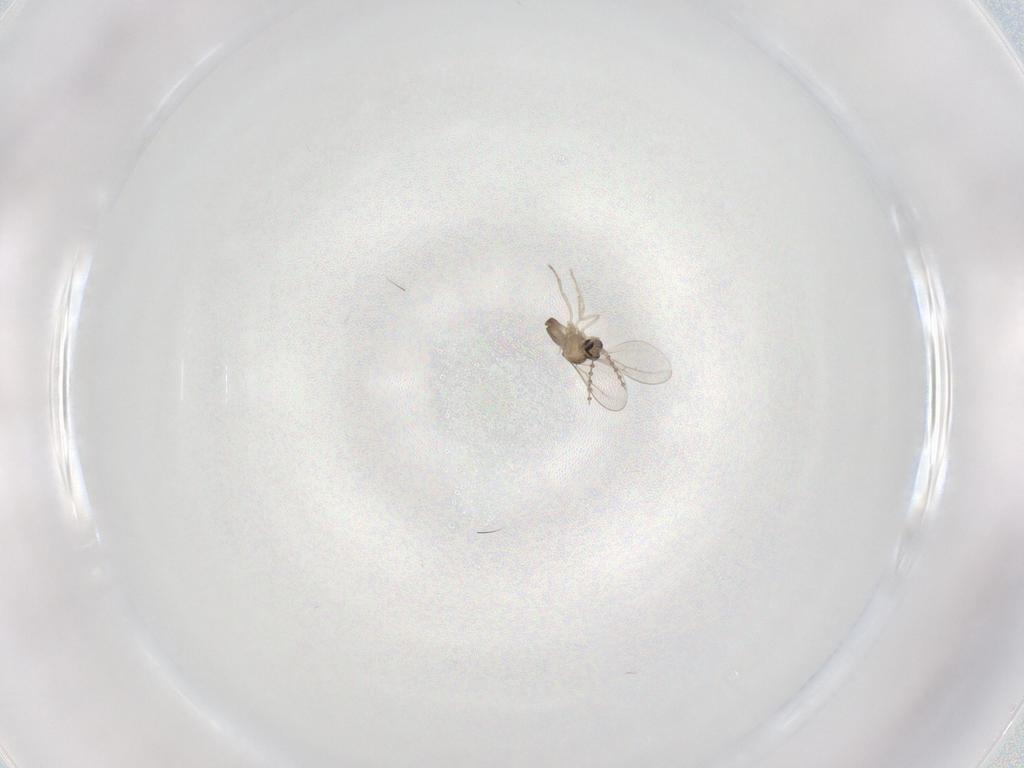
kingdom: Animalia
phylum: Arthropoda
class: Insecta
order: Diptera
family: Cecidomyiidae
